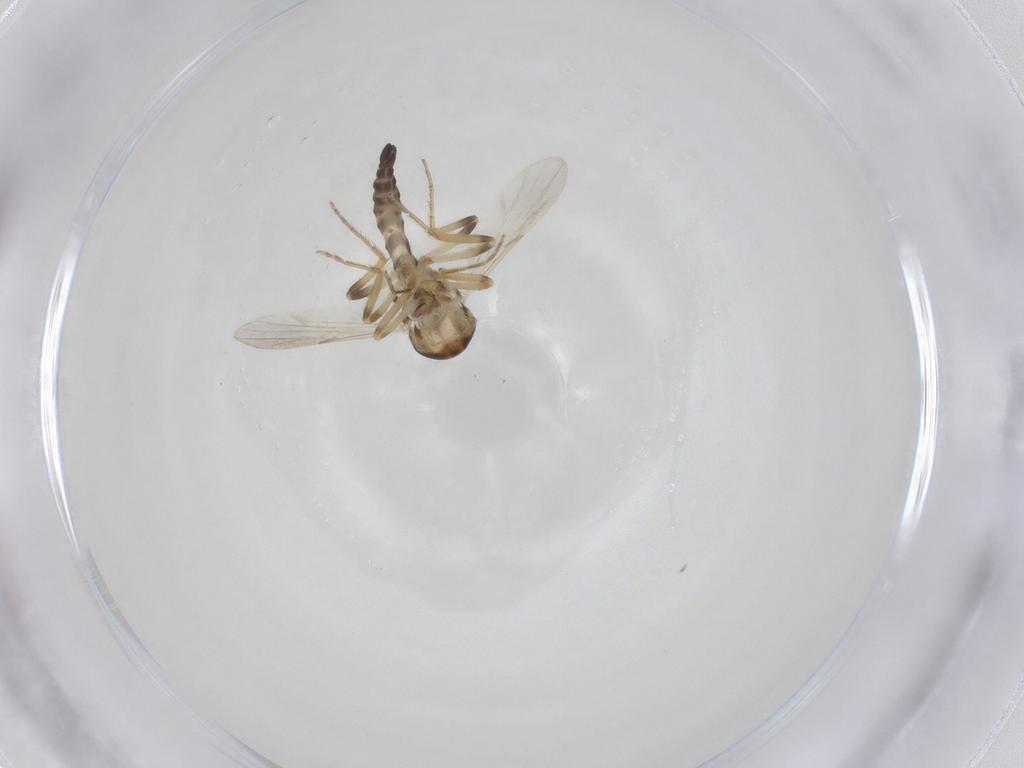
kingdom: Animalia
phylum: Arthropoda
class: Insecta
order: Diptera
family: Ceratopogonidae
